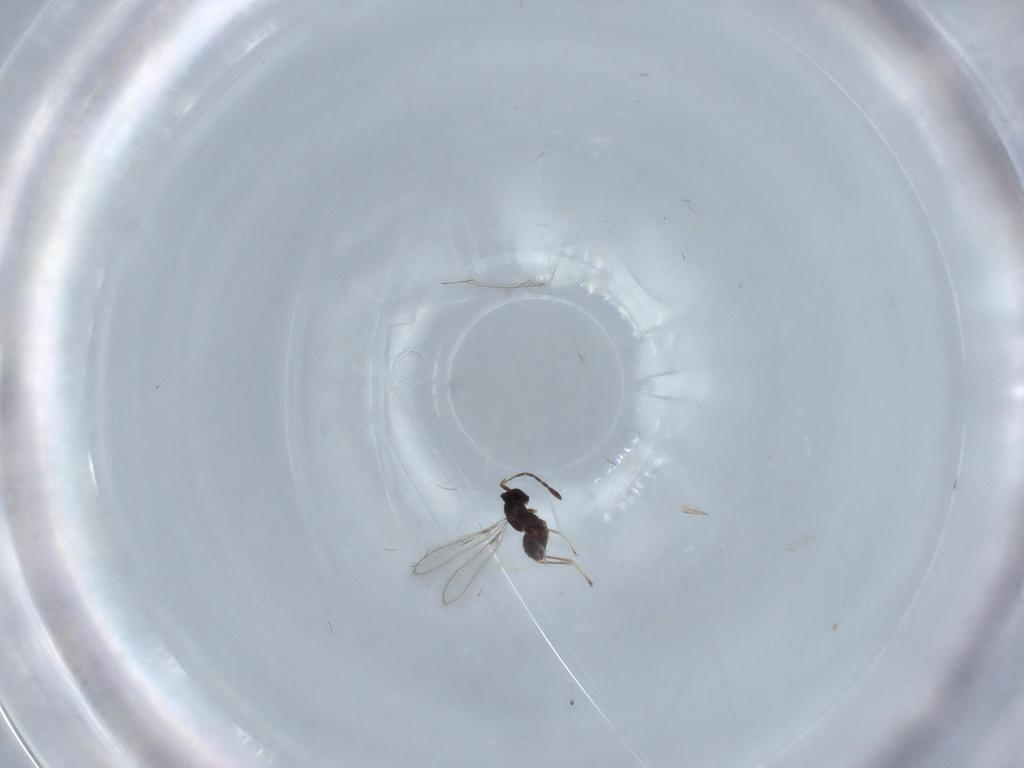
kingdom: Animalia
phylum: Arthropoda
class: Insecta
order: Hymenoptera
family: Mymaridae
